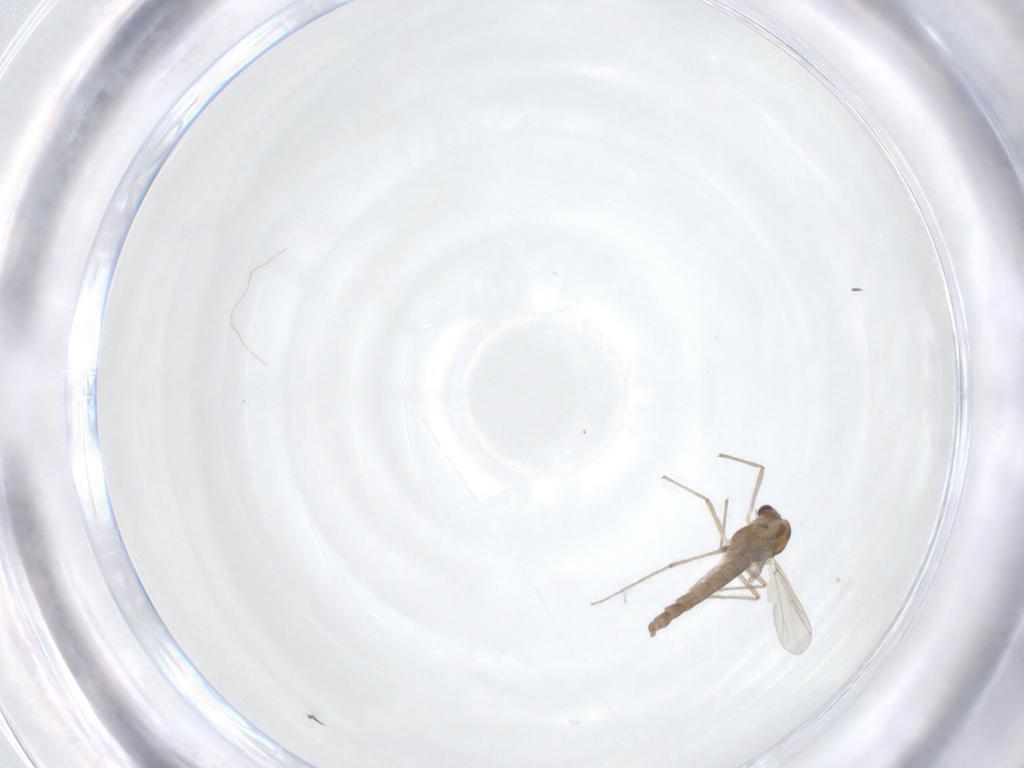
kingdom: Animalia
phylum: Arthropoda
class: Insecta
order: Diptera
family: Chironomidae
